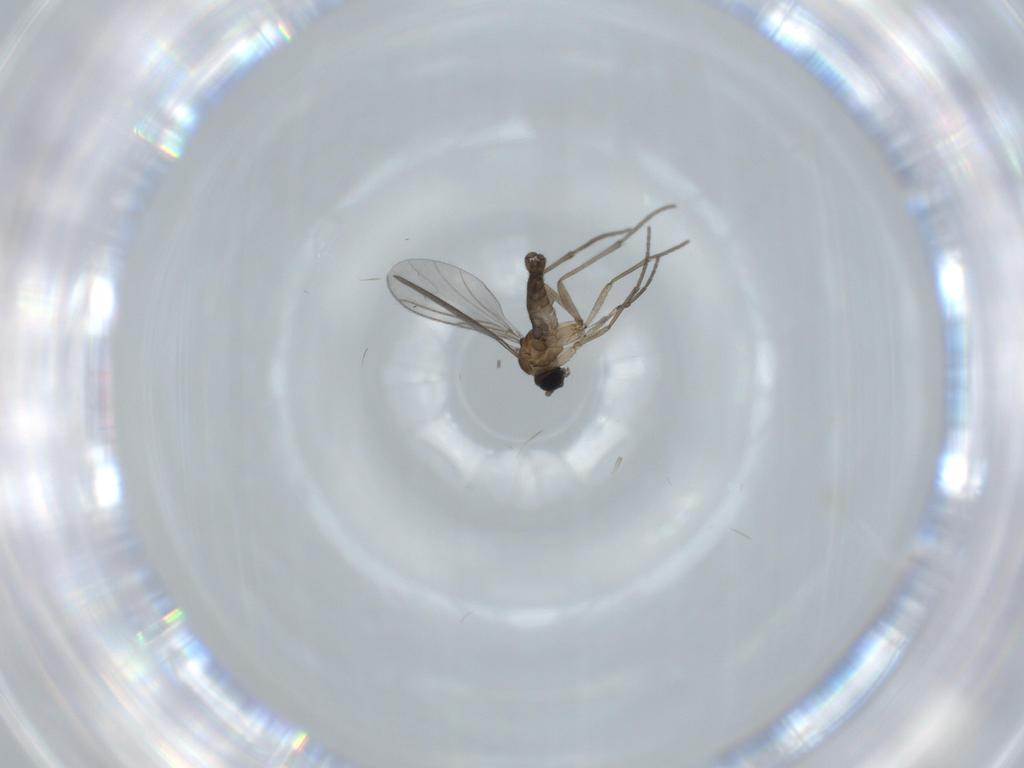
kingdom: Animalia
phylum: Arthropoda
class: Insecta
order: Diptera
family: Sciaridae
